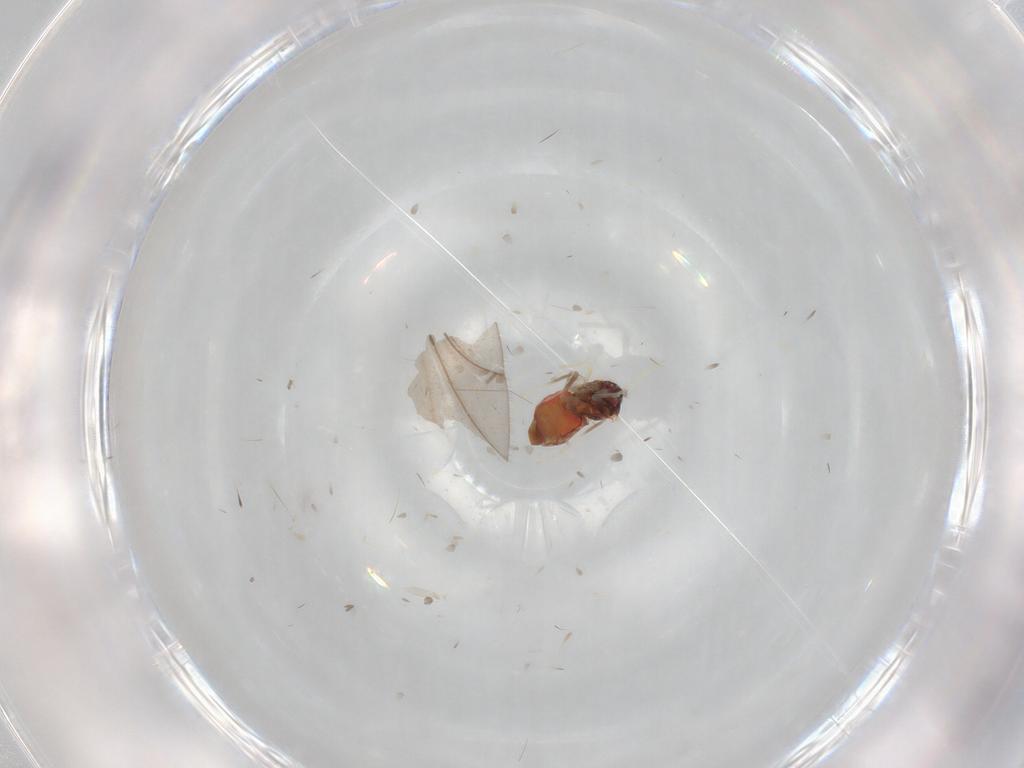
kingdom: Animalia
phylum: Arthropoda
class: Insecta
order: Hemiptera
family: Aleyrodidae
